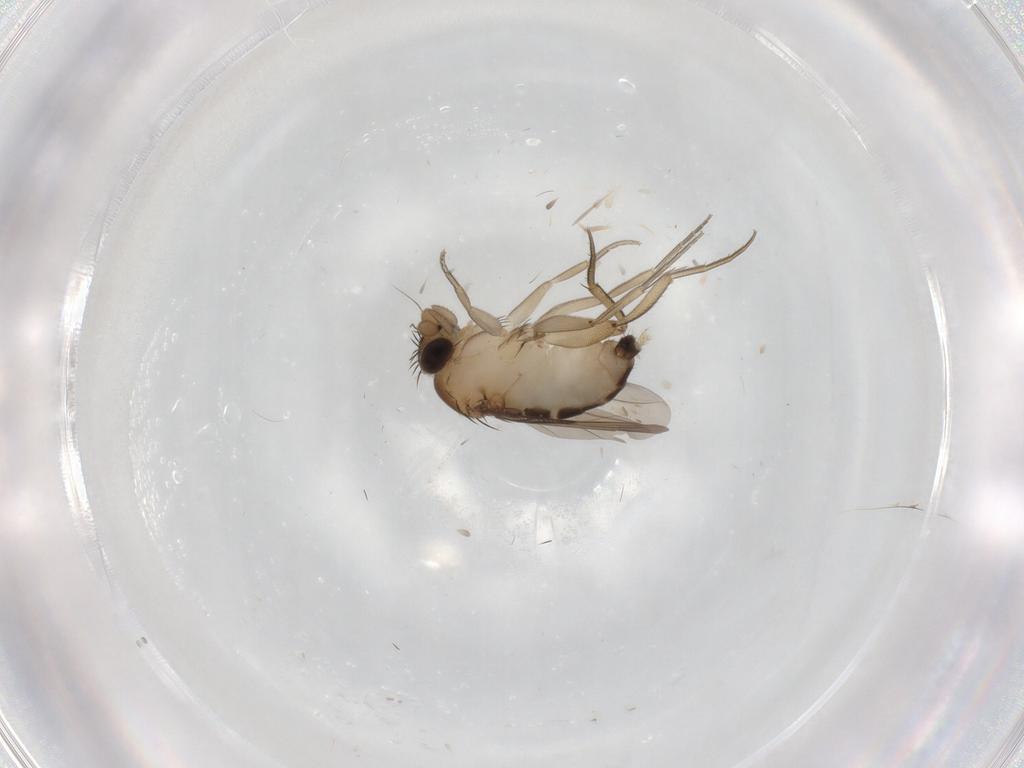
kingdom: Animalia
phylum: Arthropoda
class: Insecta
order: Diptera
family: Phoridae
